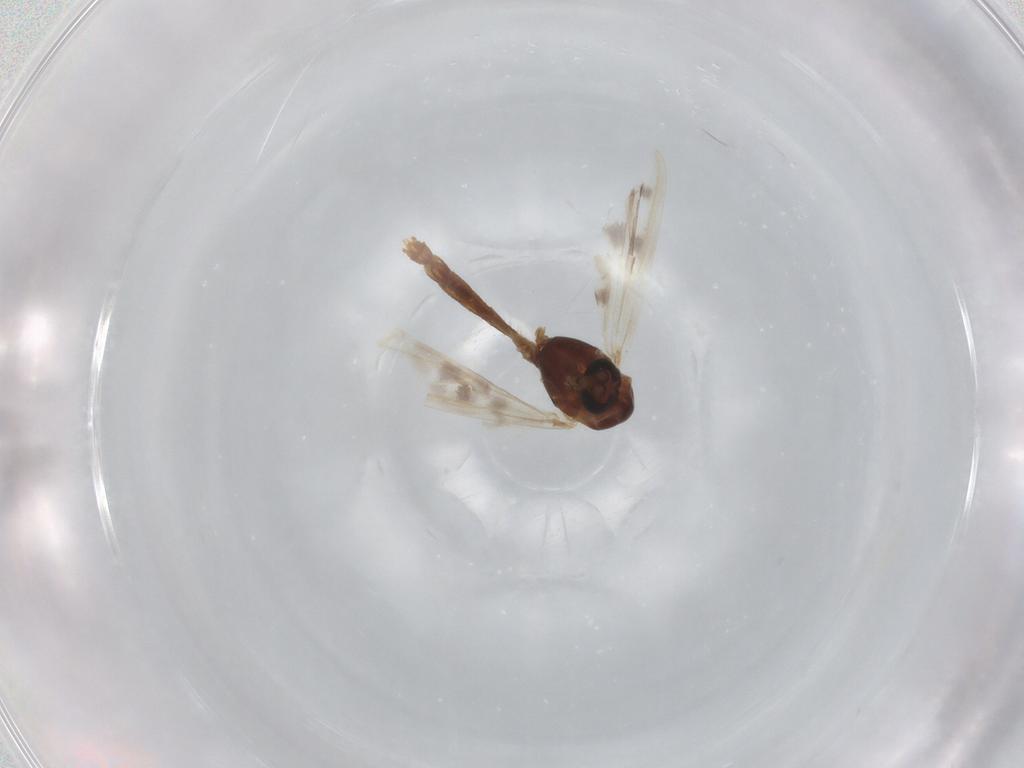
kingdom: Animalia
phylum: Arthropoda
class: Insecta
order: Diptera
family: Chironomidae
